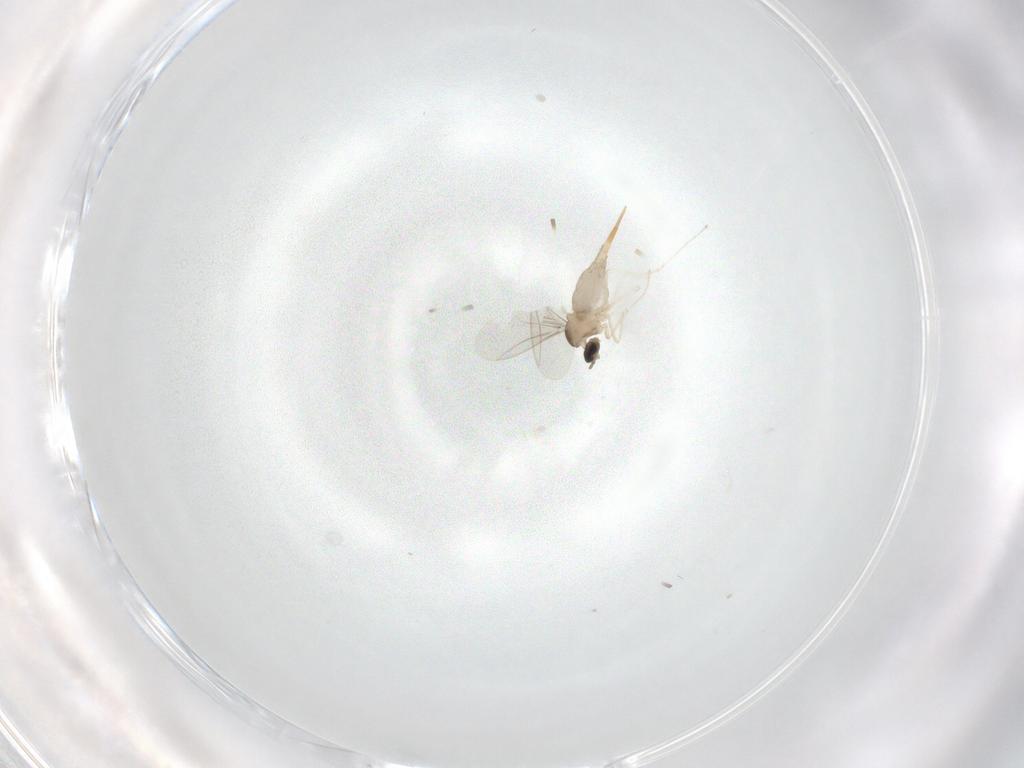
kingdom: Animalia
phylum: Arthropoda
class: Insecta
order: Diptera
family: Cecidomyiidae
